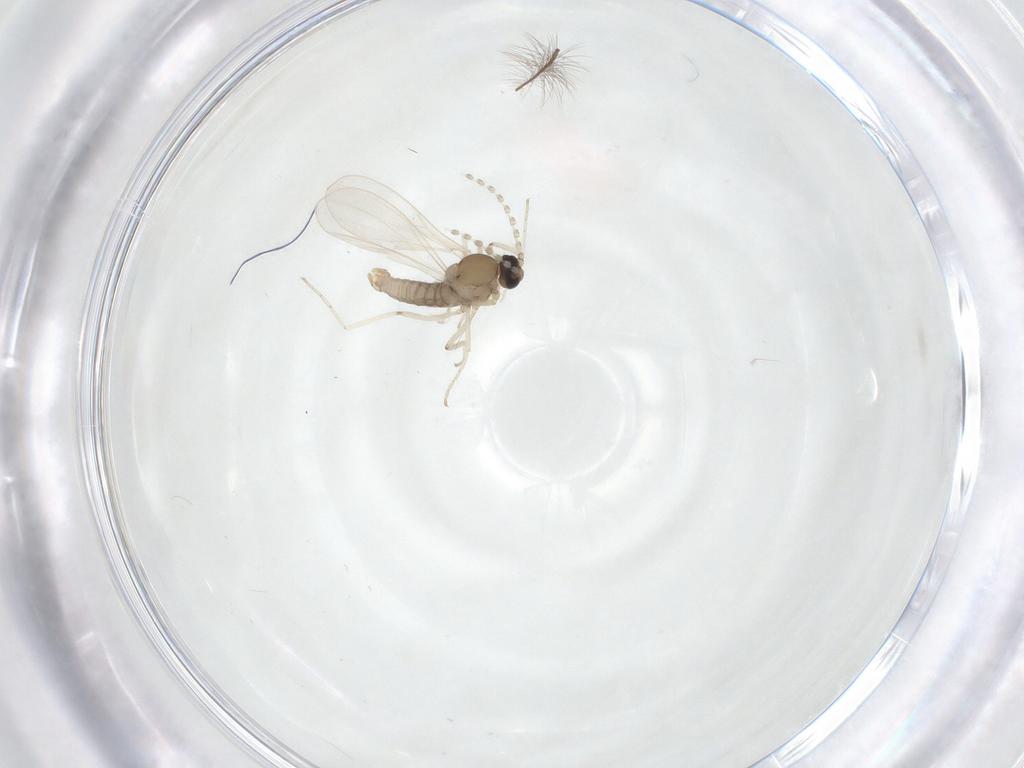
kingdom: Animalia
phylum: Arthropoda
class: Insecta
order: Diptera
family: Cecidomyiidae
